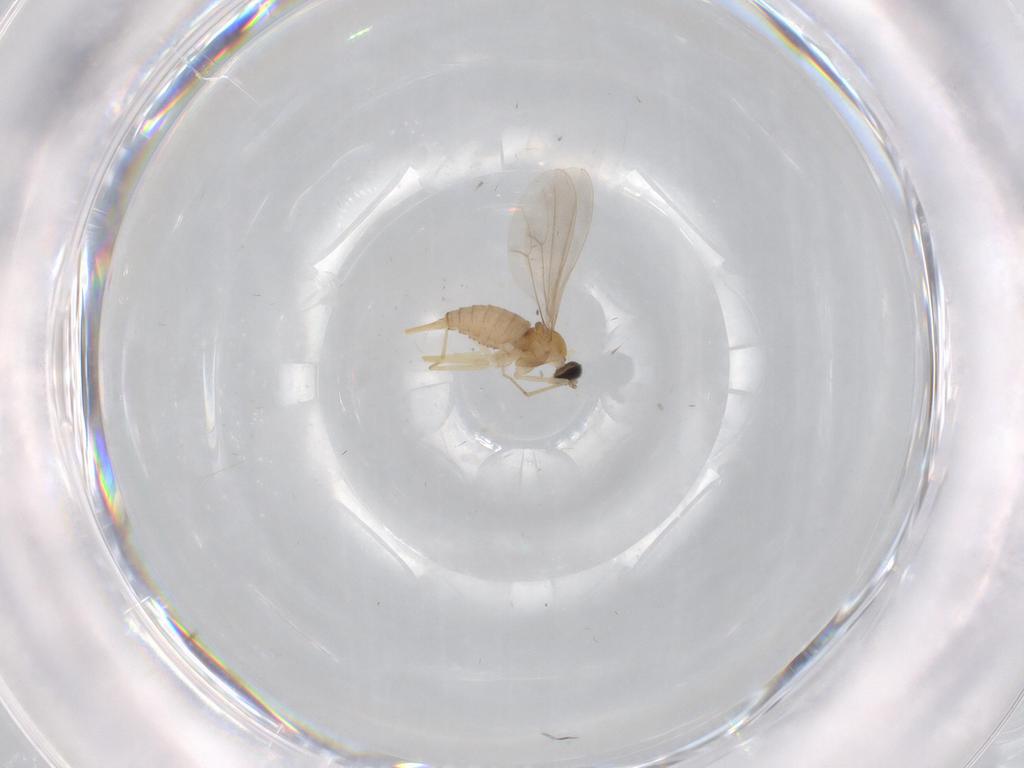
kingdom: Animalia
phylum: Arthropoda
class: Insecta
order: Diptera
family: Cecidomyiidae
